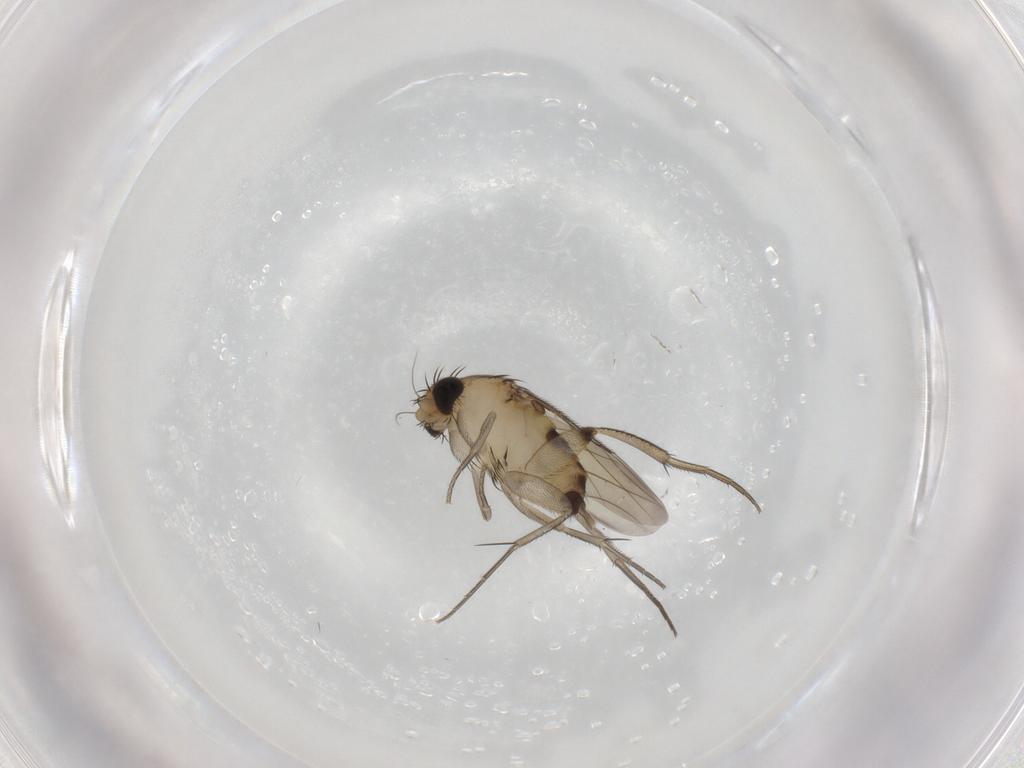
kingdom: Animalia
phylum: Arthropoda
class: Insecta
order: Diptera
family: Phoridae
